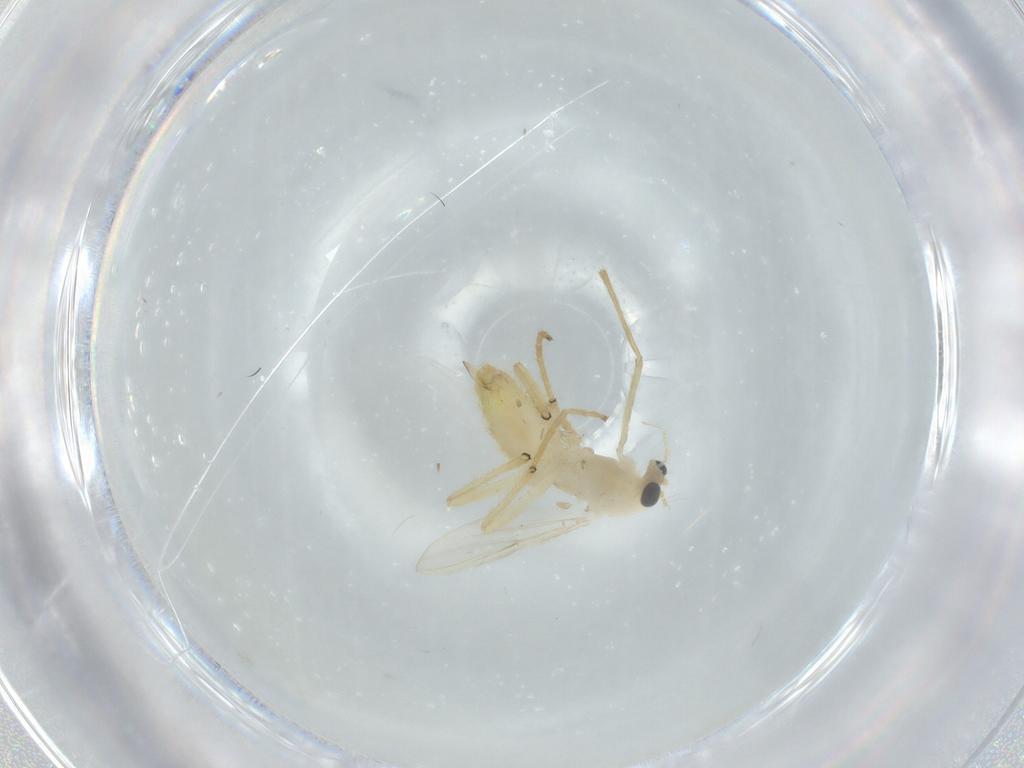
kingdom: Animalia
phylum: Arthropoda
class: Insecta
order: Diptera
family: Chironomidae
